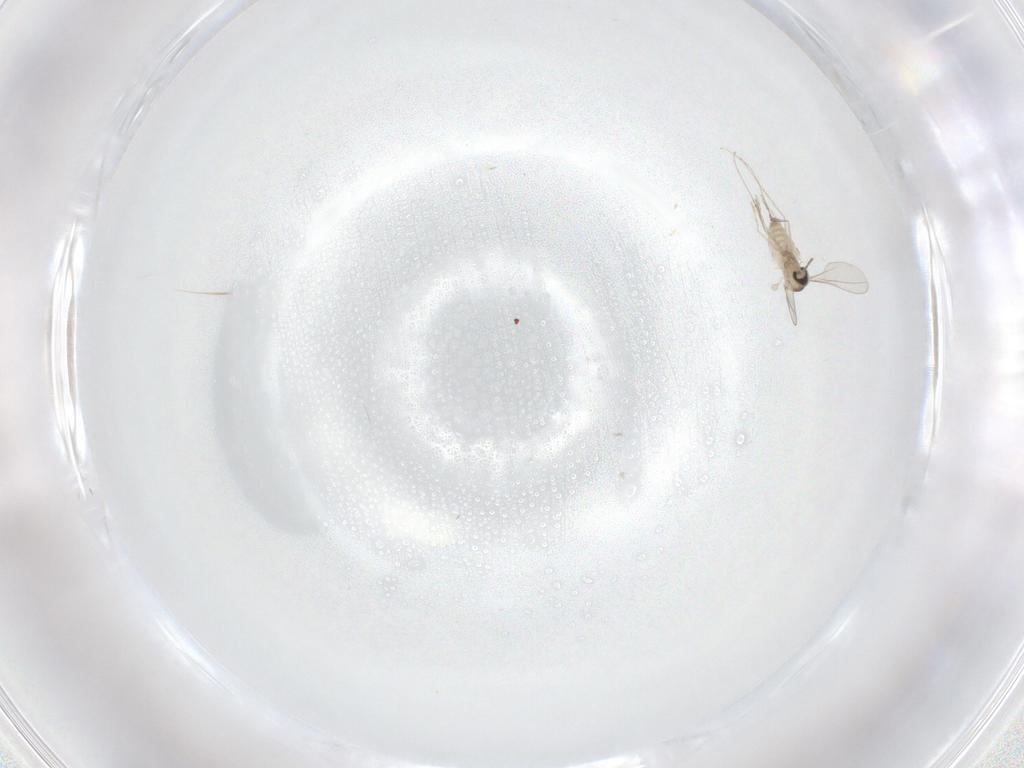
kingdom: Animalia
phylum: Arthropoda
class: Insecta
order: Diptera
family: Cecidomyiidae
